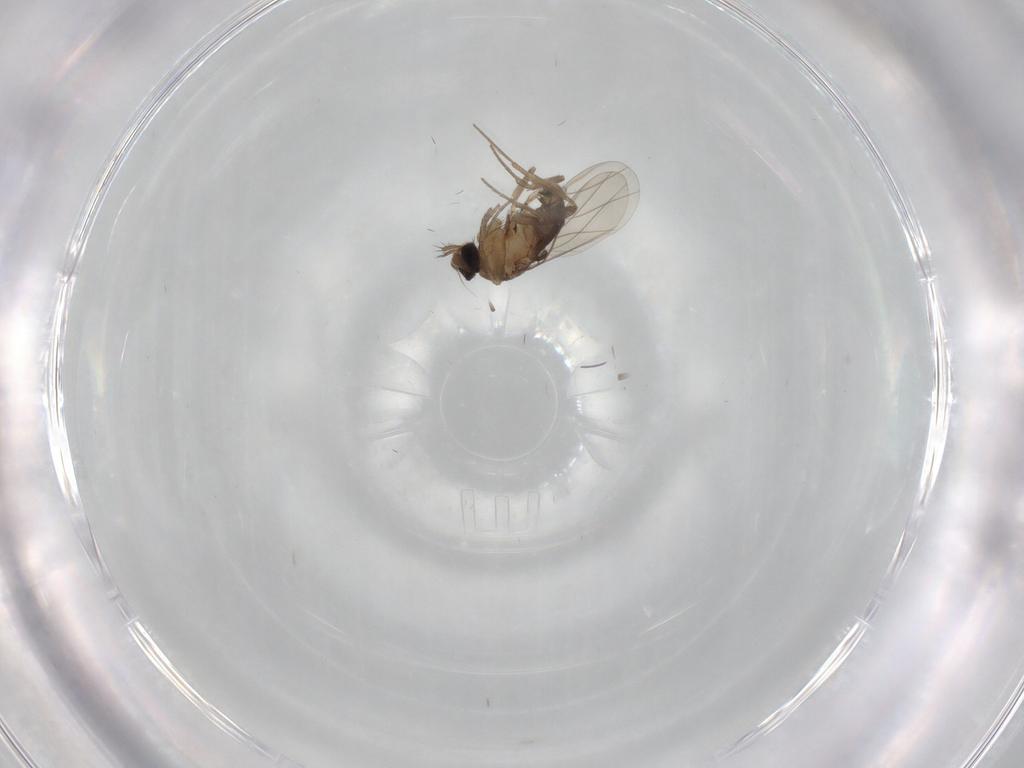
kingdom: Animalia
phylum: Arthropoda
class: Insecta
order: Diptera
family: Phoridae
